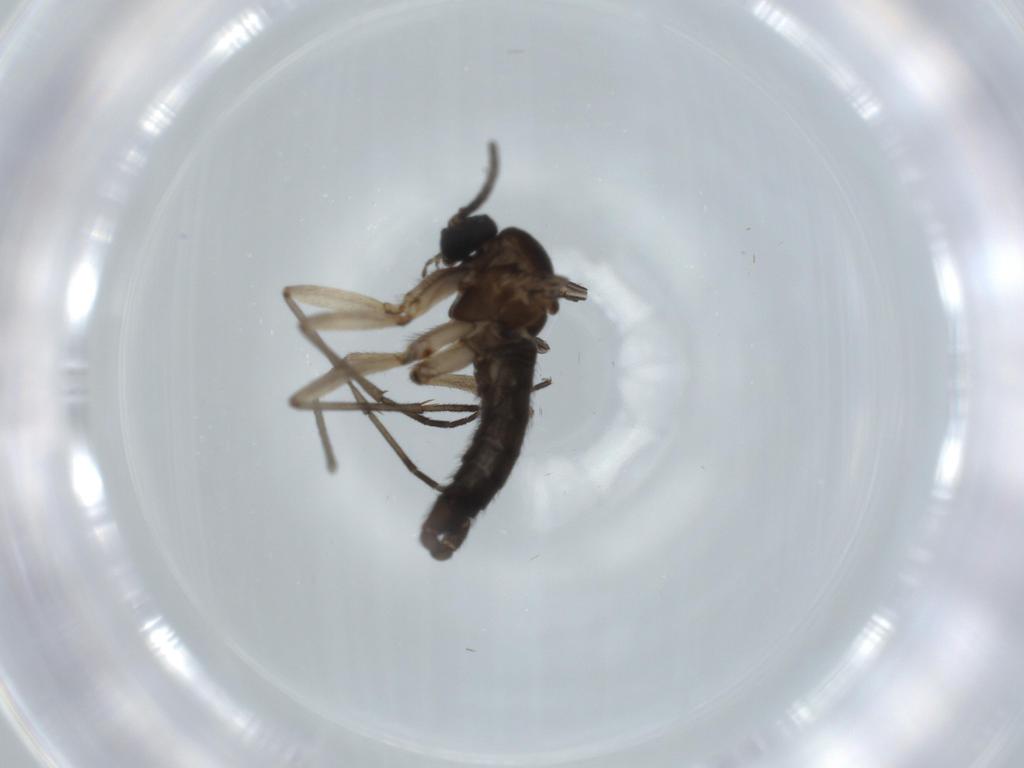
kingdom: Animalia
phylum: Arthropoda
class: Insecta
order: Diptera
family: Sciaridae
